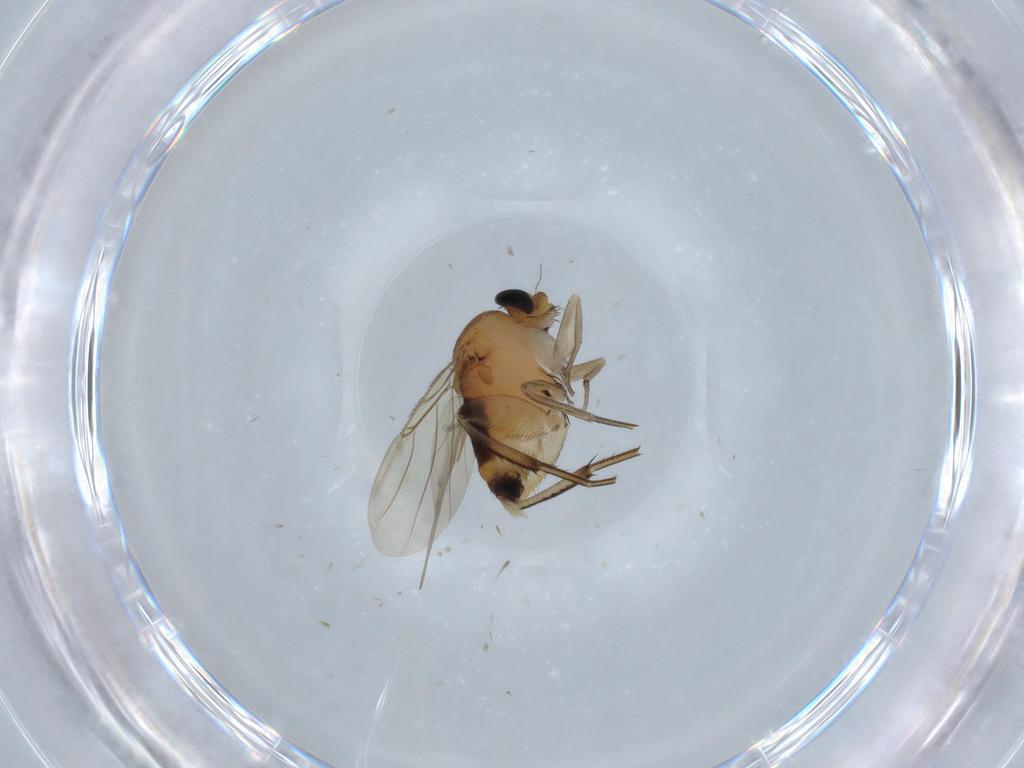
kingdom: Animalia
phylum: Arthropoda
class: Insecta
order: Diptera
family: Phoridae
